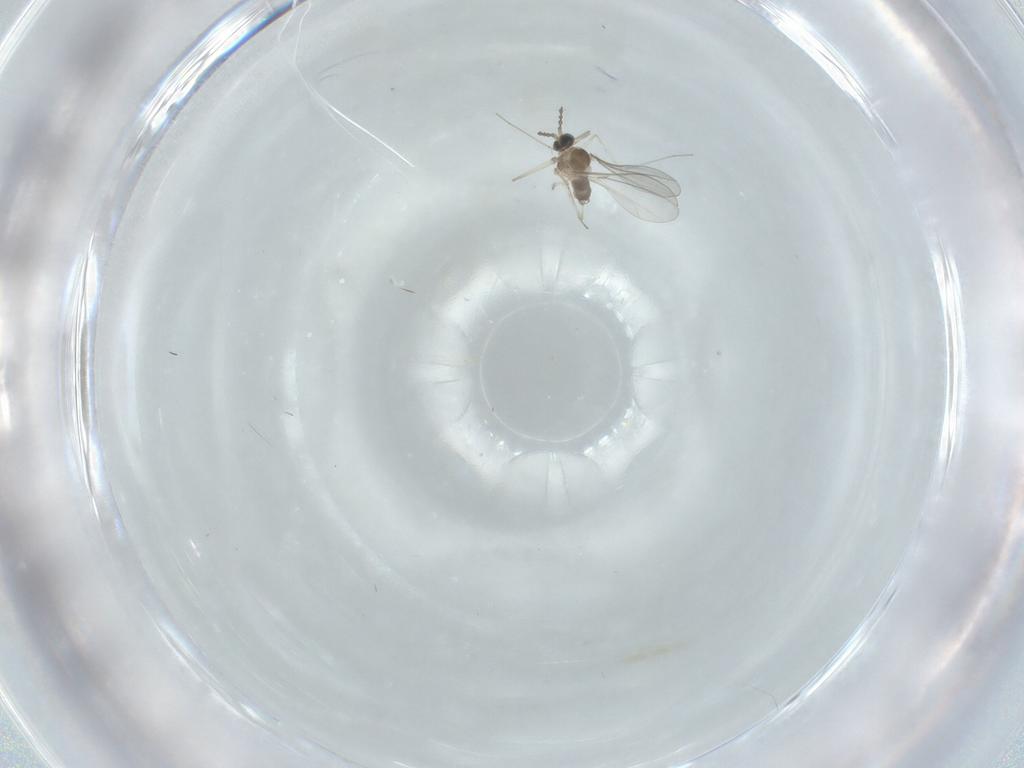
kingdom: Animalia
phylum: Arthropoda
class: Insecta
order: Diptera
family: Cecidomyiidae
